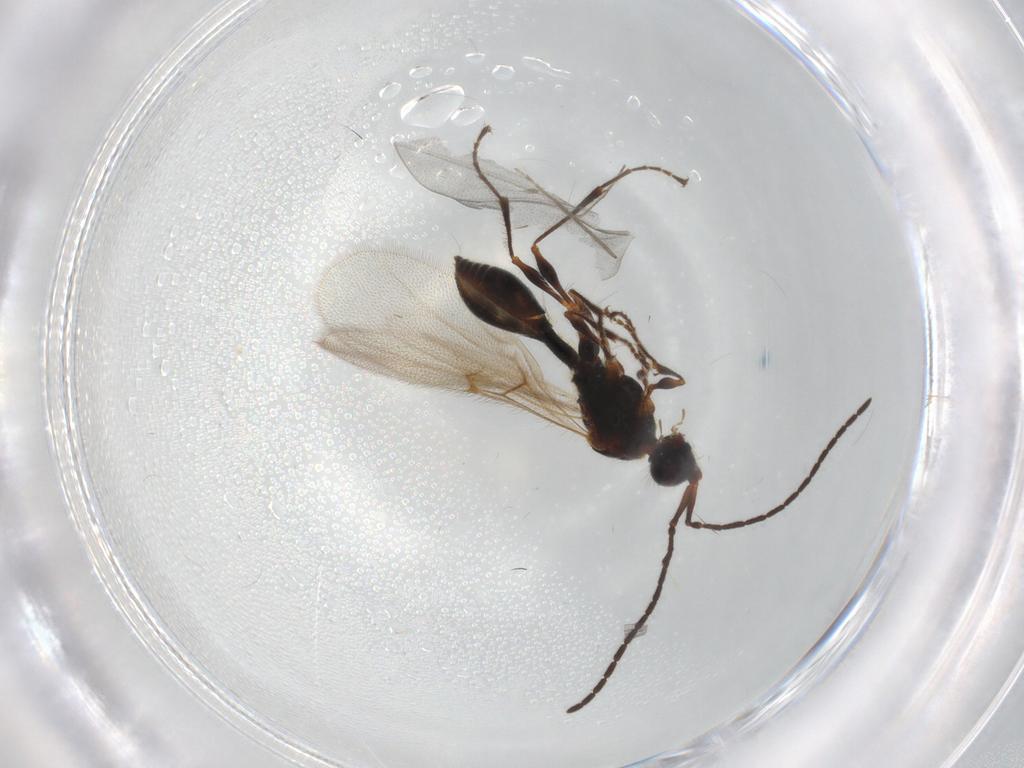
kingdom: Animalia
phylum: Arthropoda
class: Insecta
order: Hymenoptera
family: Diapriidae
